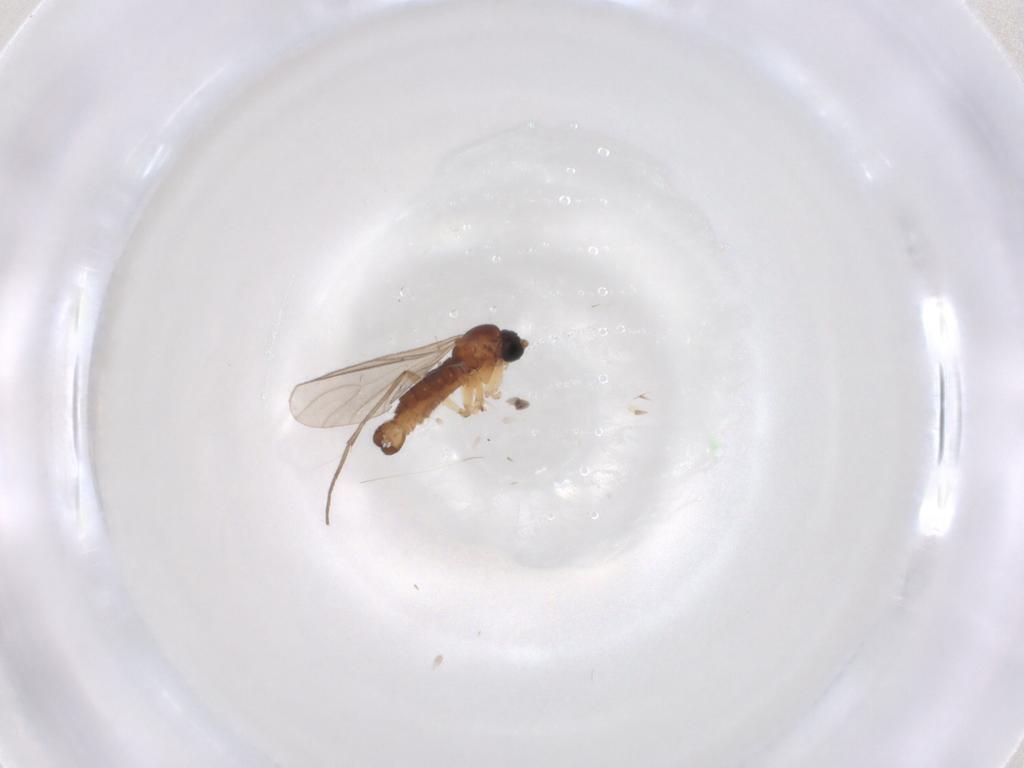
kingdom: Animalia
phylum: Arthropoda
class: Insecta
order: Diptera
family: Sciaridae
